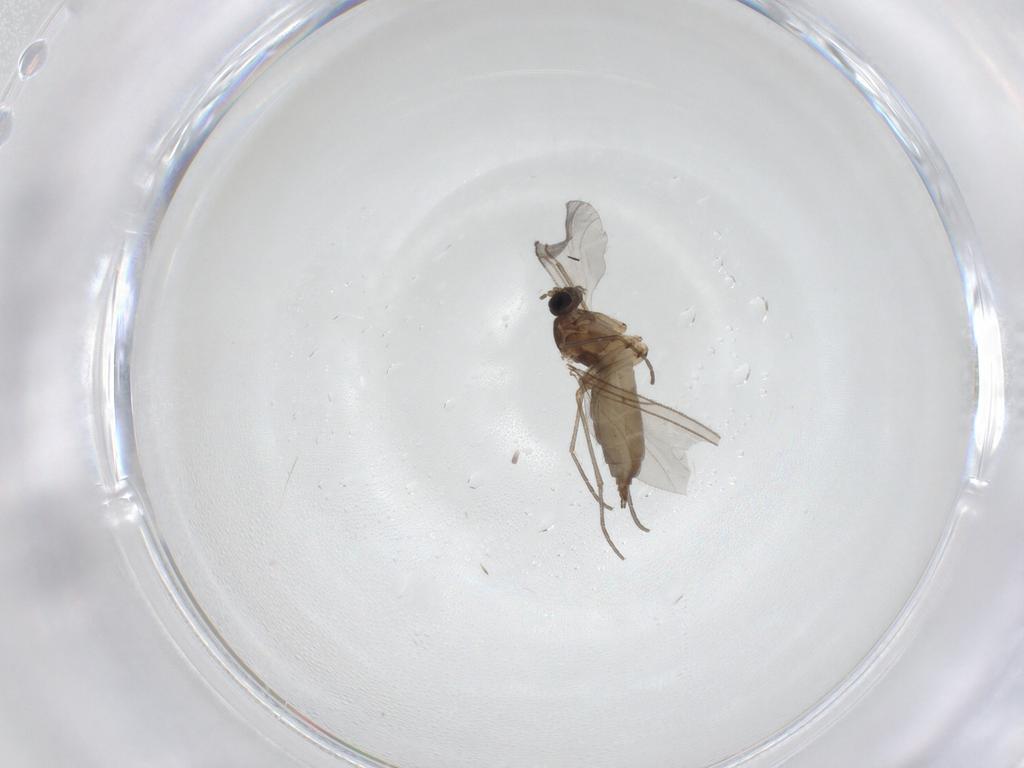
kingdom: Animalia
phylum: Arthropoda
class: Insecta
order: Diptera
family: Sciaridae
